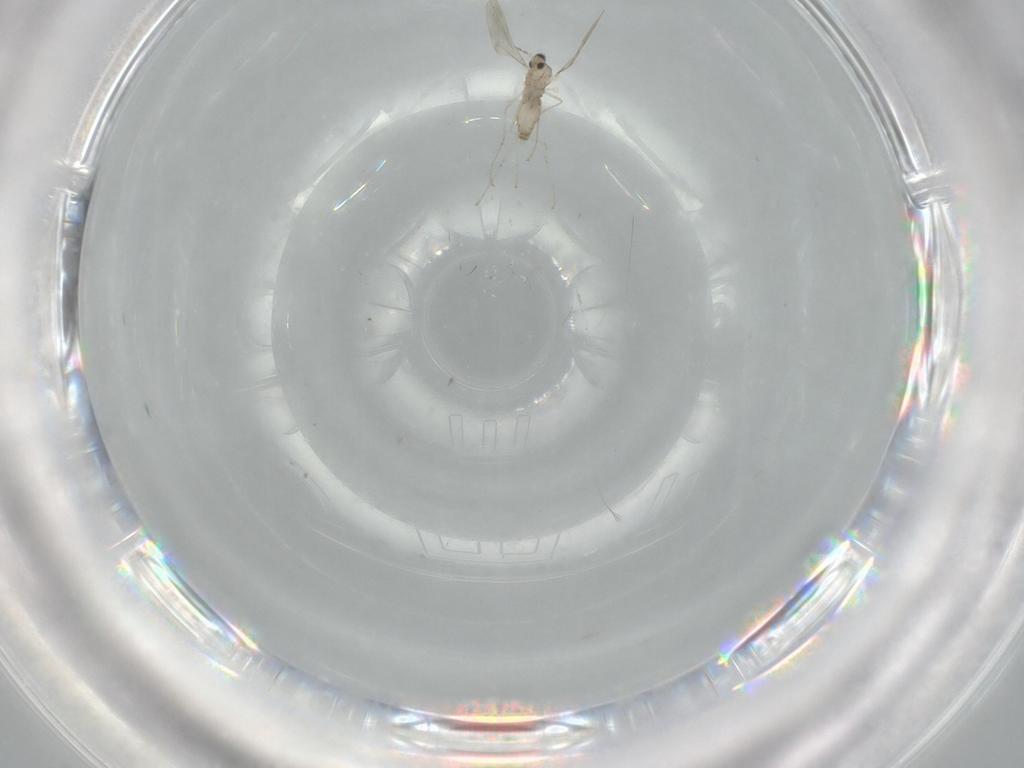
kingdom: Animalia
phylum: Arthropoda
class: Insecta
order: Diptera
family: Cecidomyiidae
